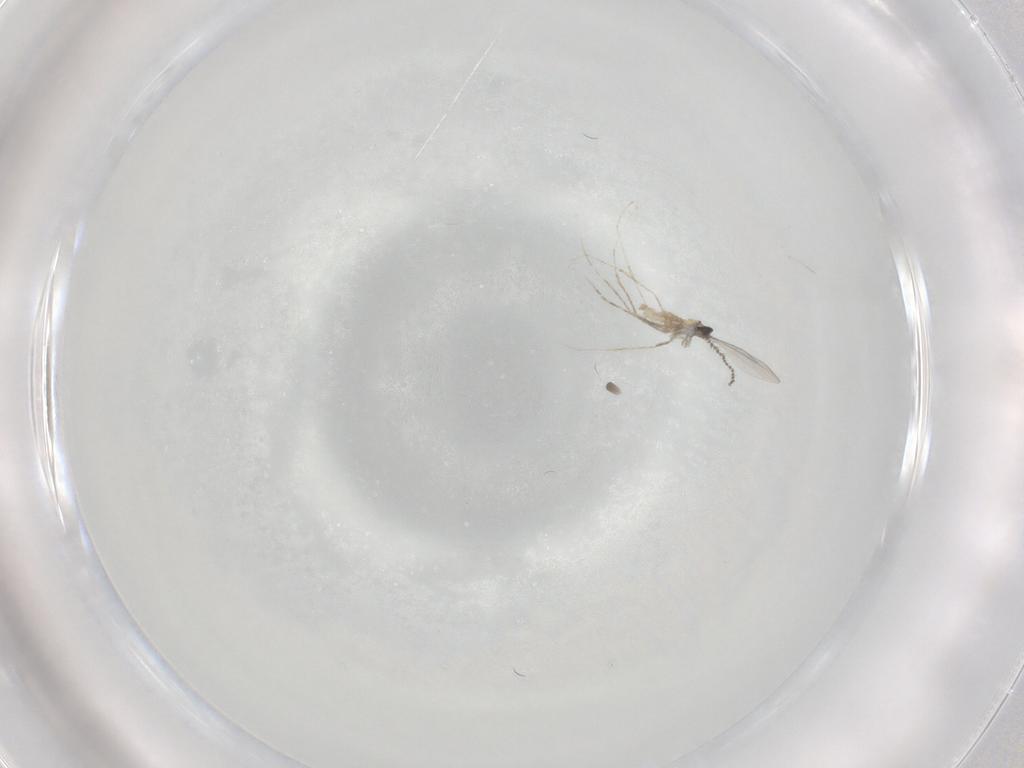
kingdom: Animalia
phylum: Arthropoda
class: Insecta
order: Diptera
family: Cecidomyiidae
